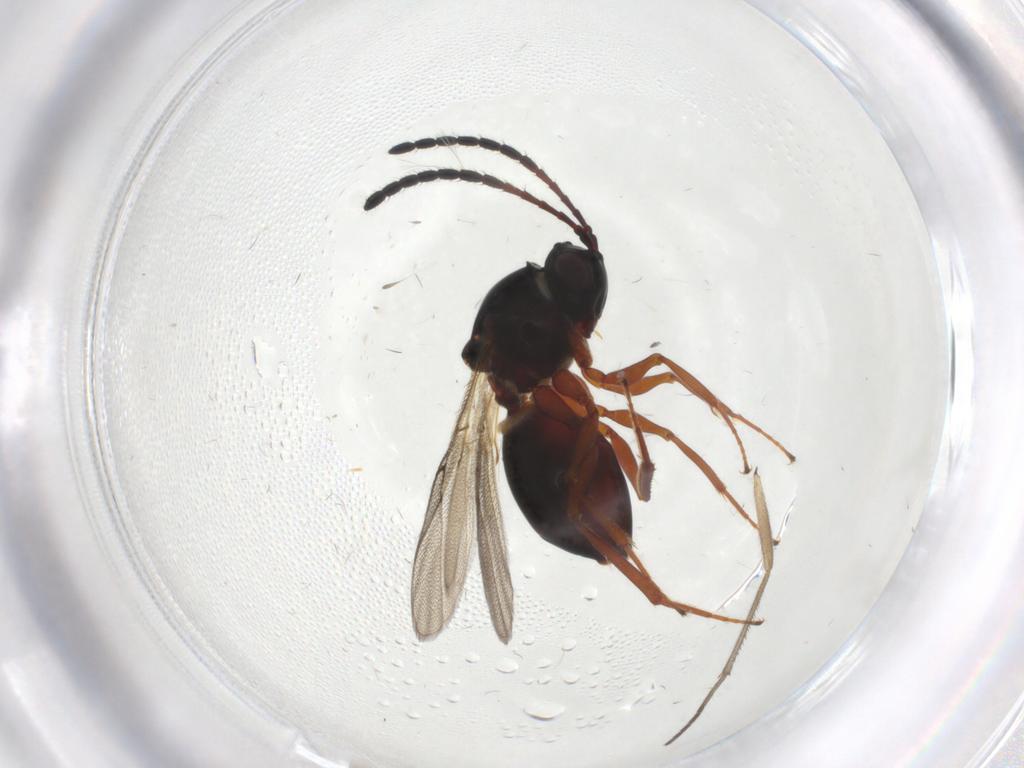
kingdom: Animalia
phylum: Arthropoda
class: Insecta
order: Hymenoptera
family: Figitidae
